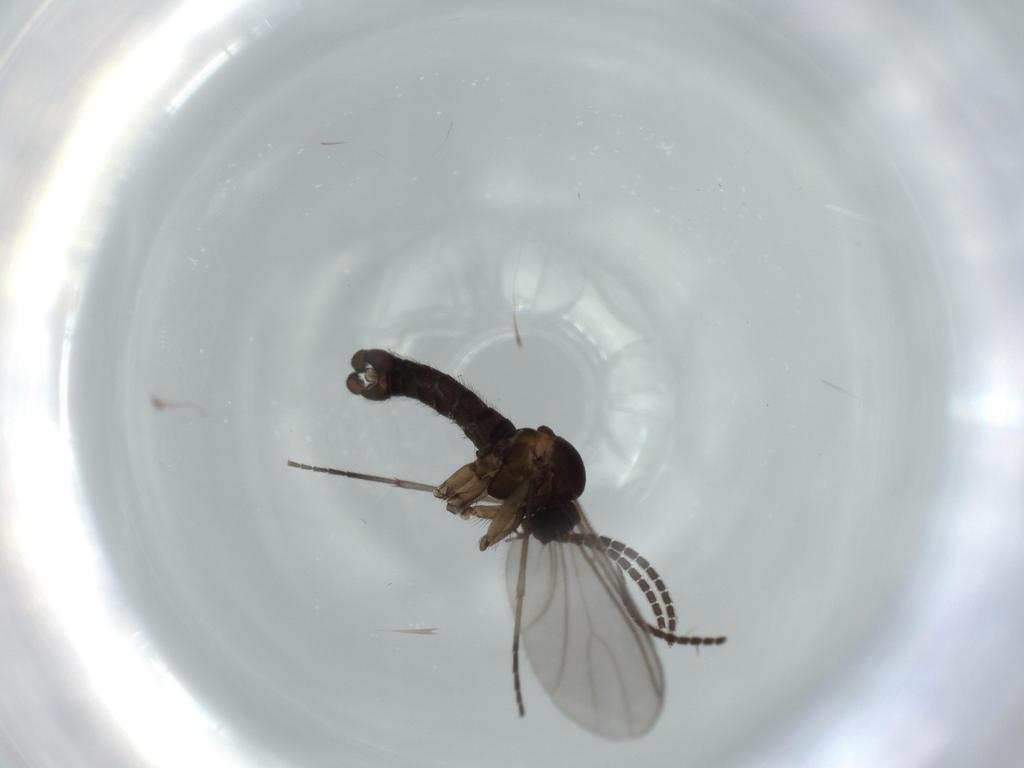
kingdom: Animalia
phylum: Arthropoda
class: Insecta
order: Diptera
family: Sciaridae
